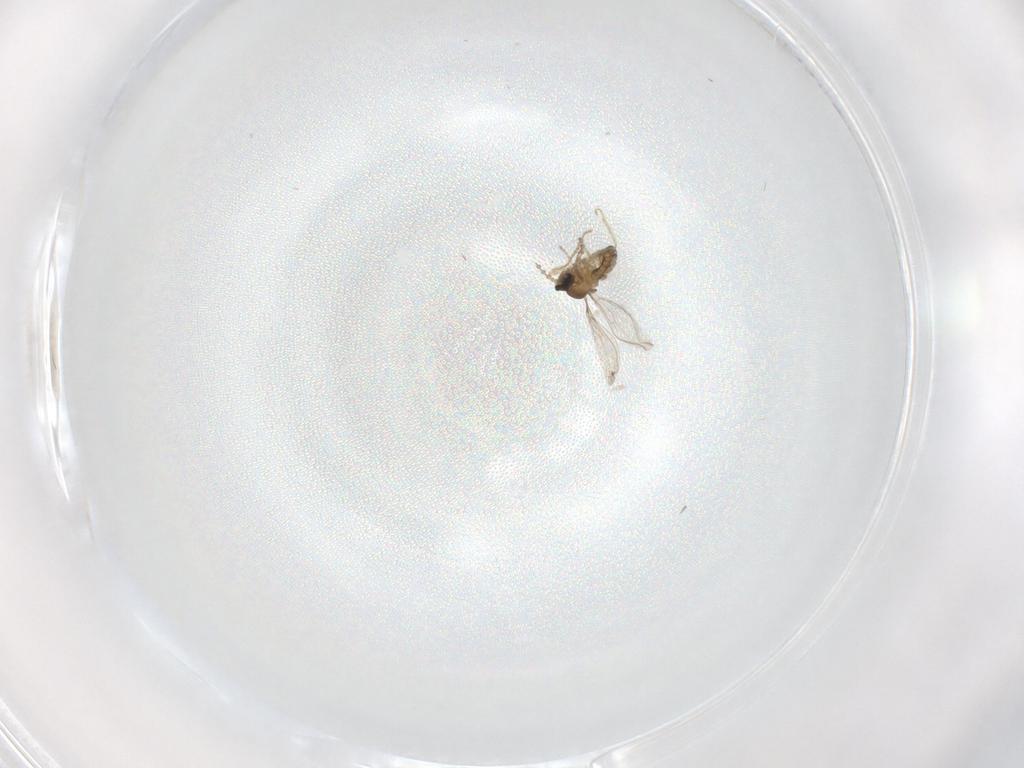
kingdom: Animalia
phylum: Arthropoda
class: Insecta
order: Diptera
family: Cecidomyiidae
